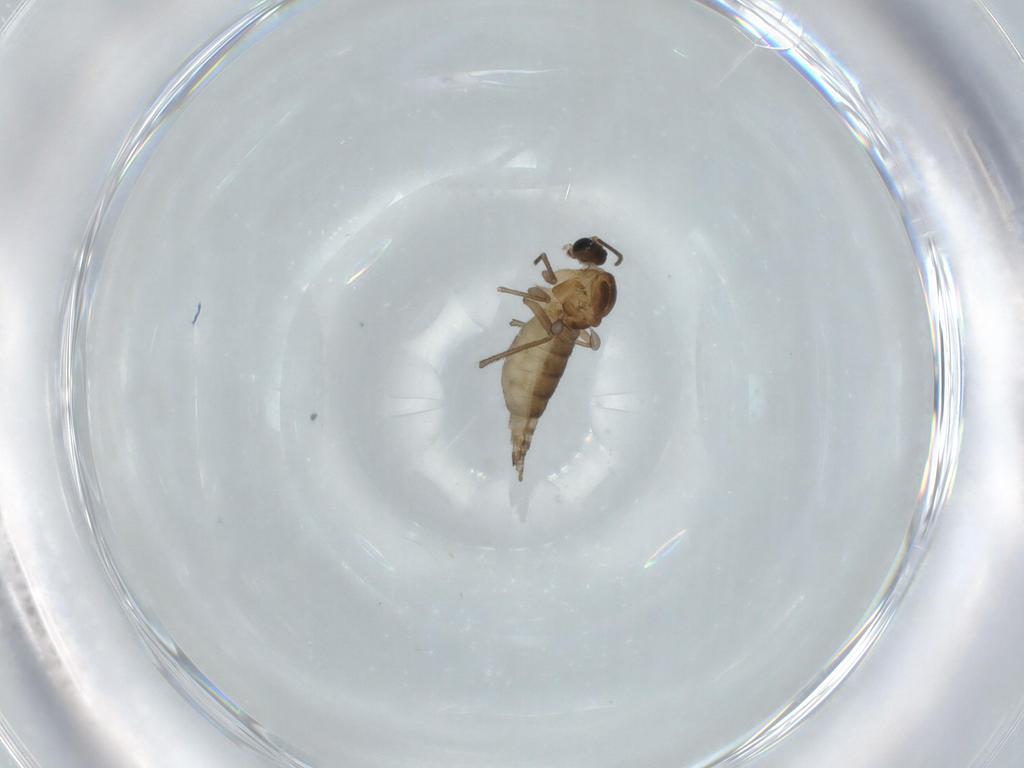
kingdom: Animalia
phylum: Arthropoda
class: Insecta
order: Diptera
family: Sciaridae
